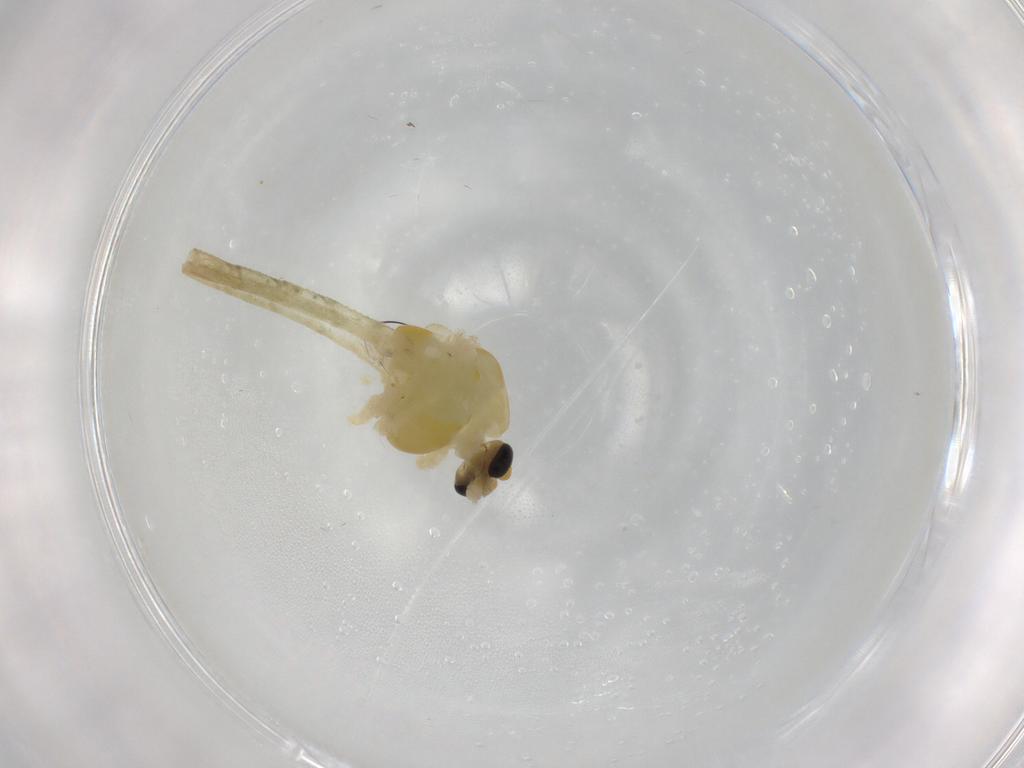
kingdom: Animalia
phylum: Arthropoda
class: Insecta
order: Diptera
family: Chironomidae
